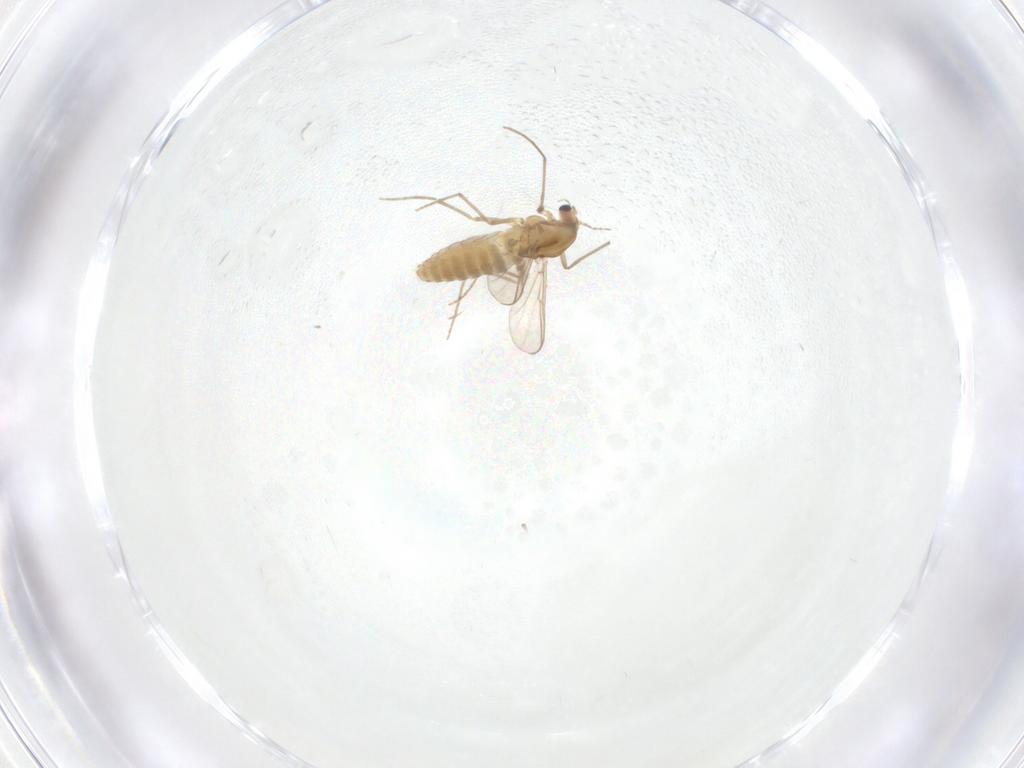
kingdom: Animalia
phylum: Arthropoda
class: Insecta
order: Diptera
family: Chironomidae
